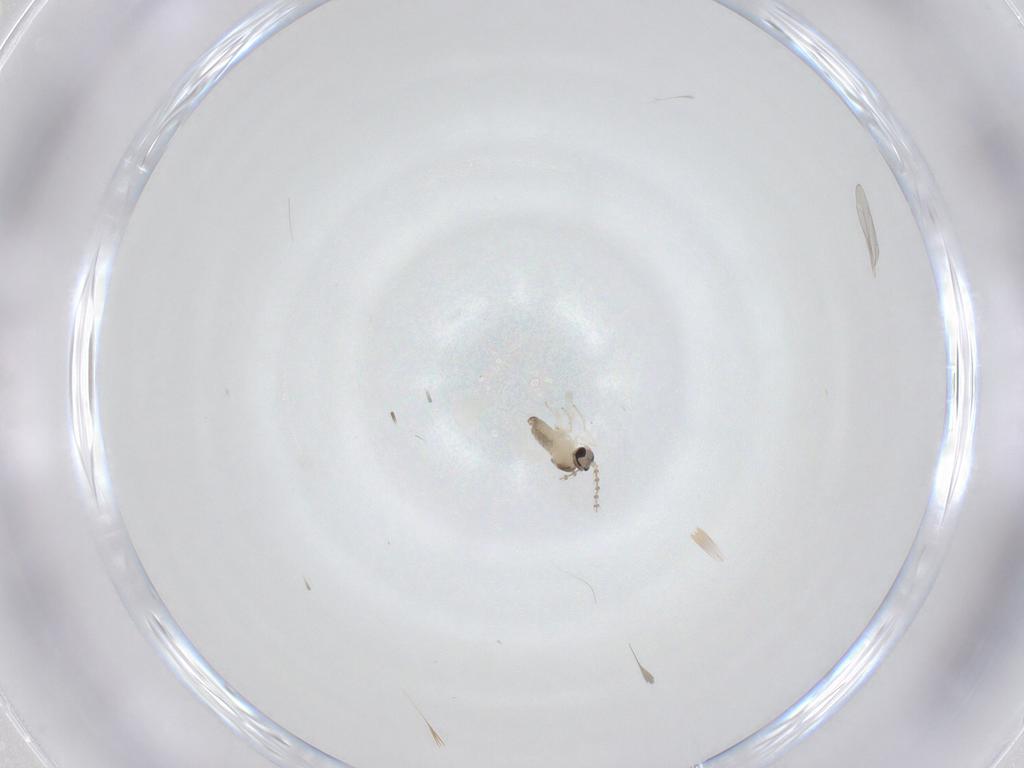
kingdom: Animalia
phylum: Arthropoda
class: Insecta
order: Diptera
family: Cecidomyiidae
